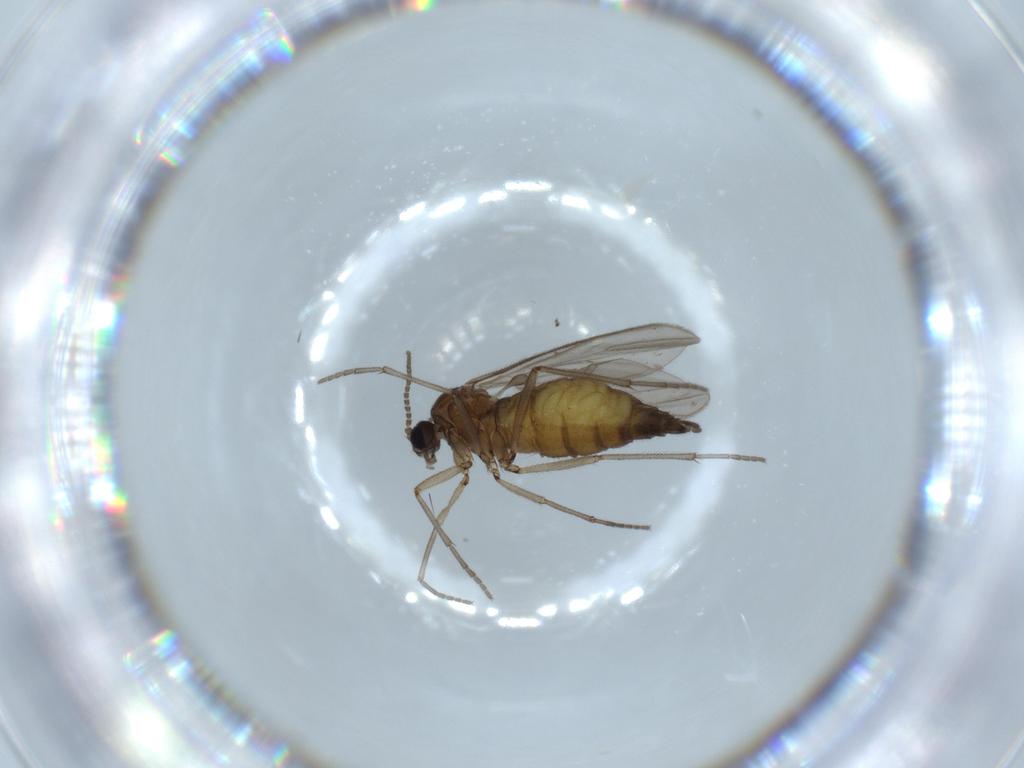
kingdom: Animalia
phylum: Arthropoda
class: Insecta
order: Diptera
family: Sciaridae
